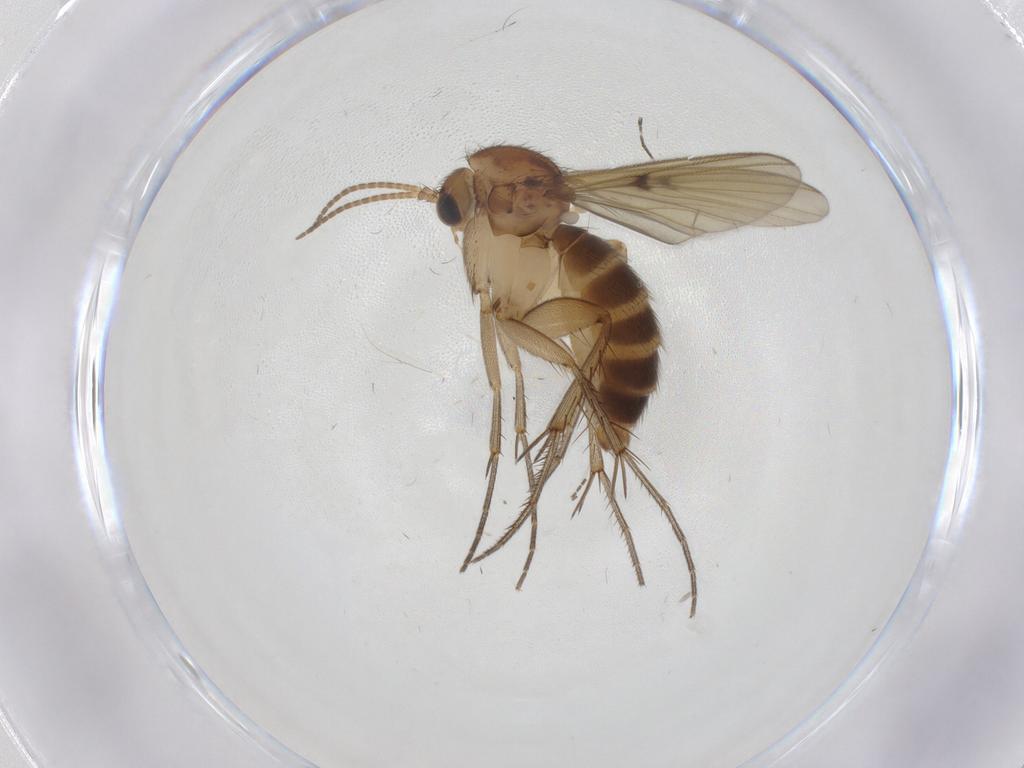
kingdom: Animalia
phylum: Arthropoda
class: Insecta
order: Diptera
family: Sciaridae
